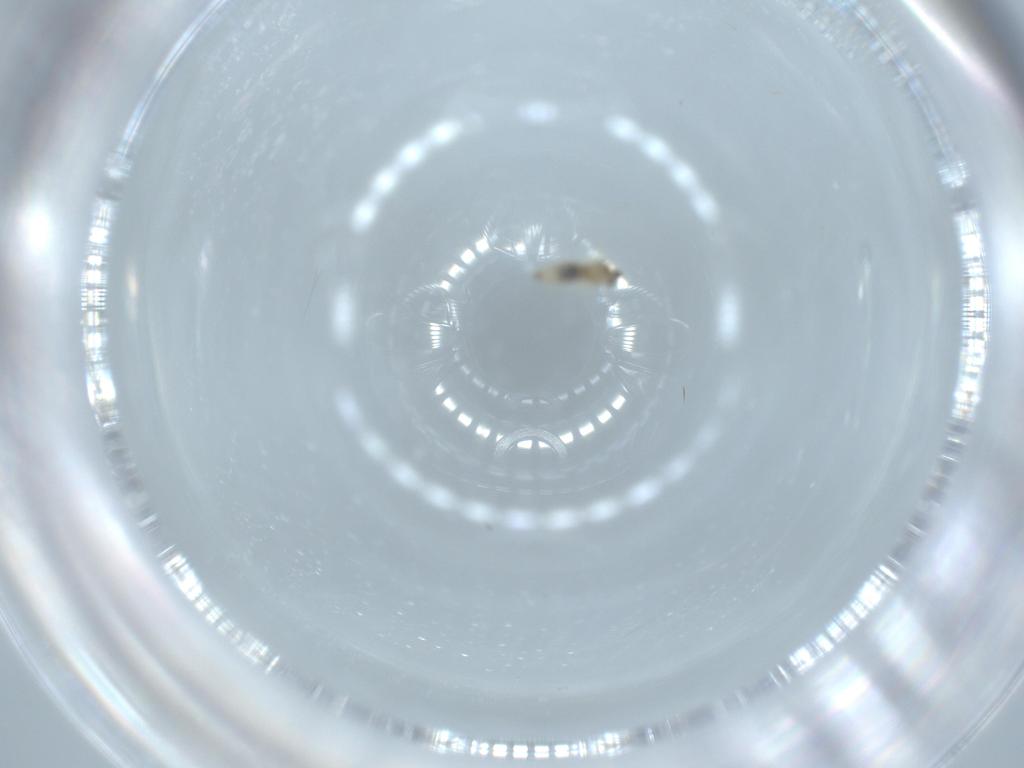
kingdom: Animalia
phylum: Arthropoda
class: Insecta
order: Diptera
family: Cecidomyiidae
